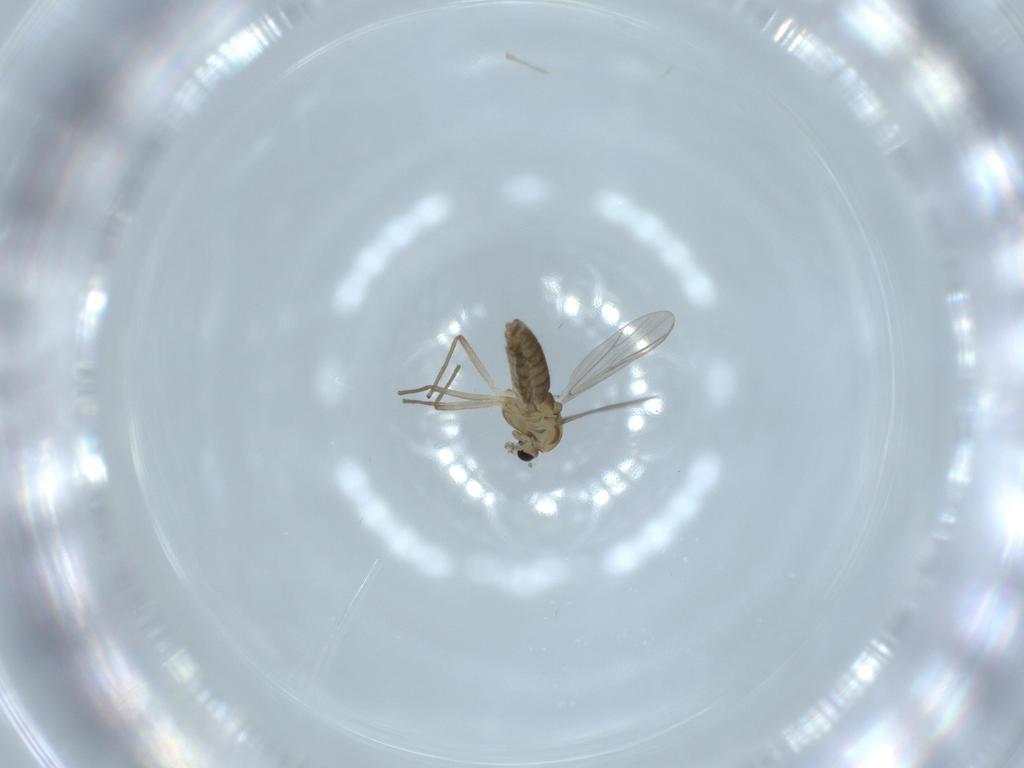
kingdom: Animalia
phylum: Arthropoda
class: Insecta
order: Diptera
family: Chironomidae
